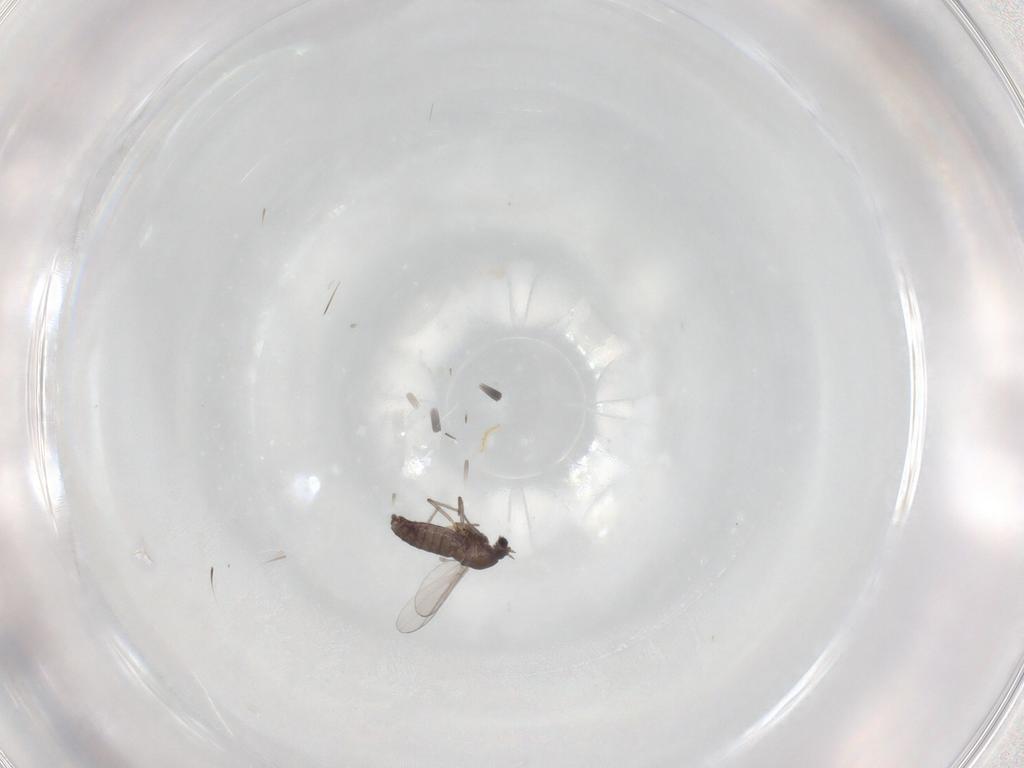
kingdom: Animalia
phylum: Arthropoda
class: Insecta
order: Diptera
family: Chironomidae
